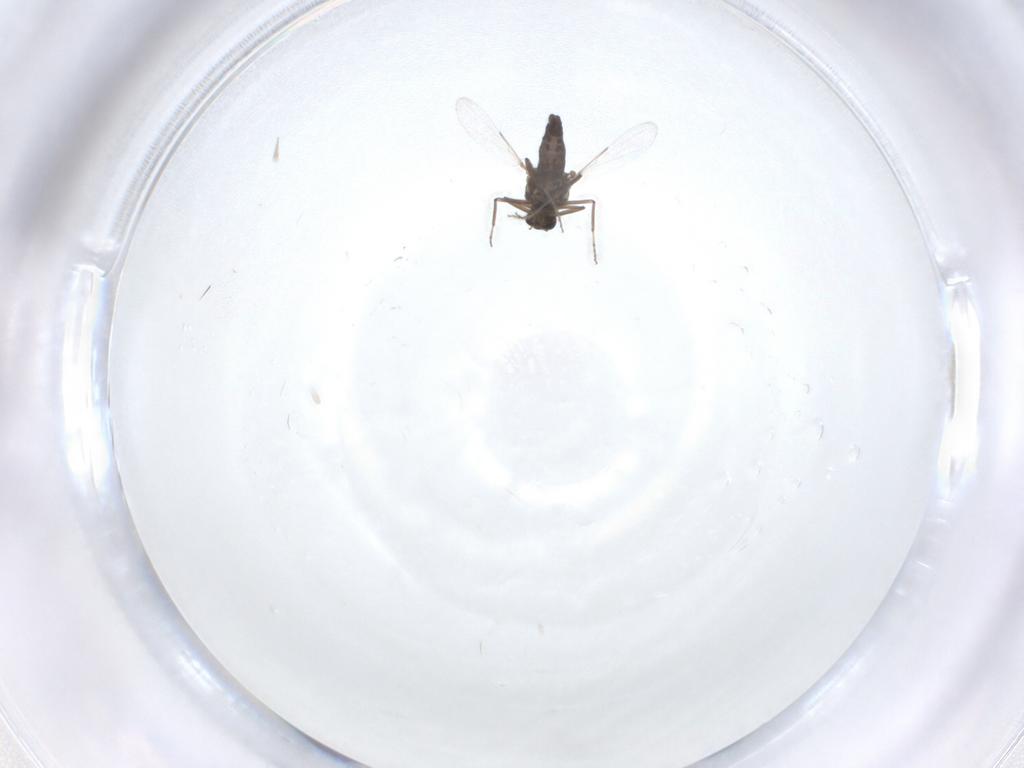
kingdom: Animalia
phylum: Arthropoda
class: Insecta
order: Diptera
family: Ceratopogonidae
